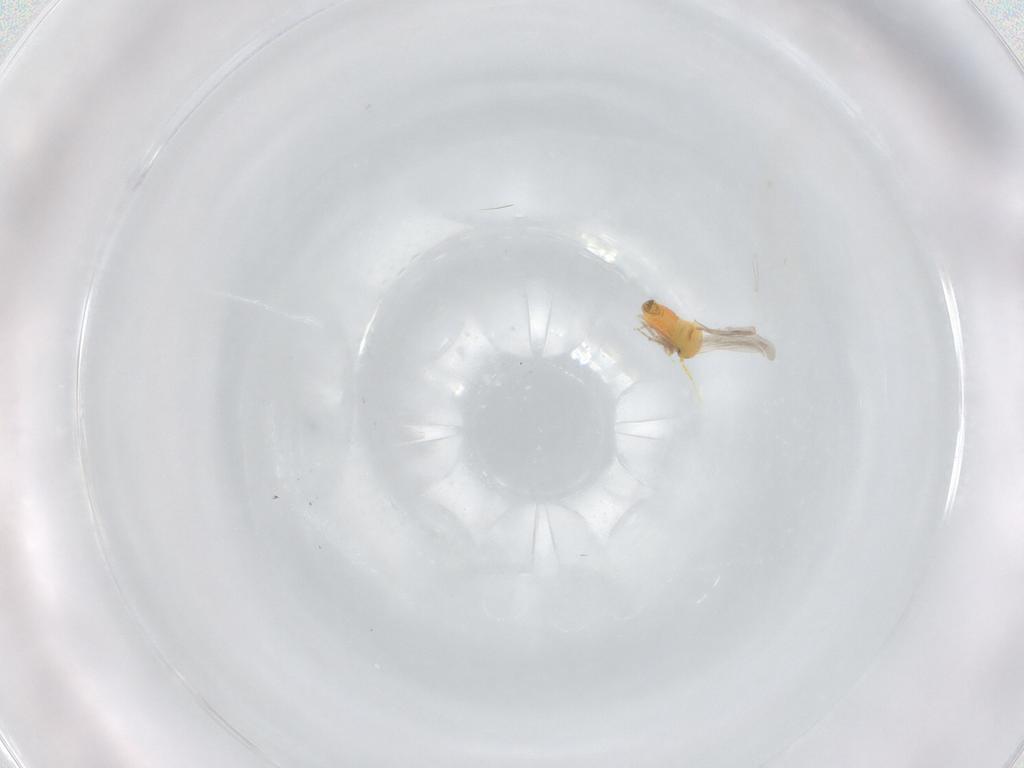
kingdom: Animalia
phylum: Arthropoda
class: Insecta
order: Hemiptera
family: Aleyrodidae
